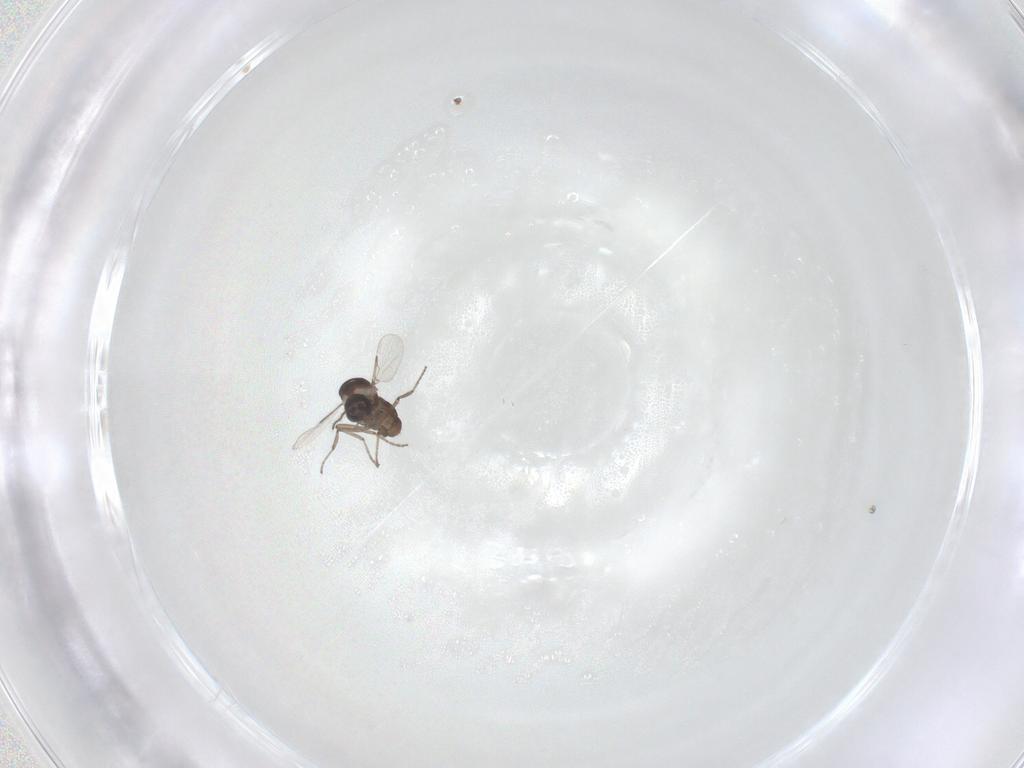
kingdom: Animalia
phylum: Arthropoda
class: Insecta
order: Diptera
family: Ceratopogonidae
